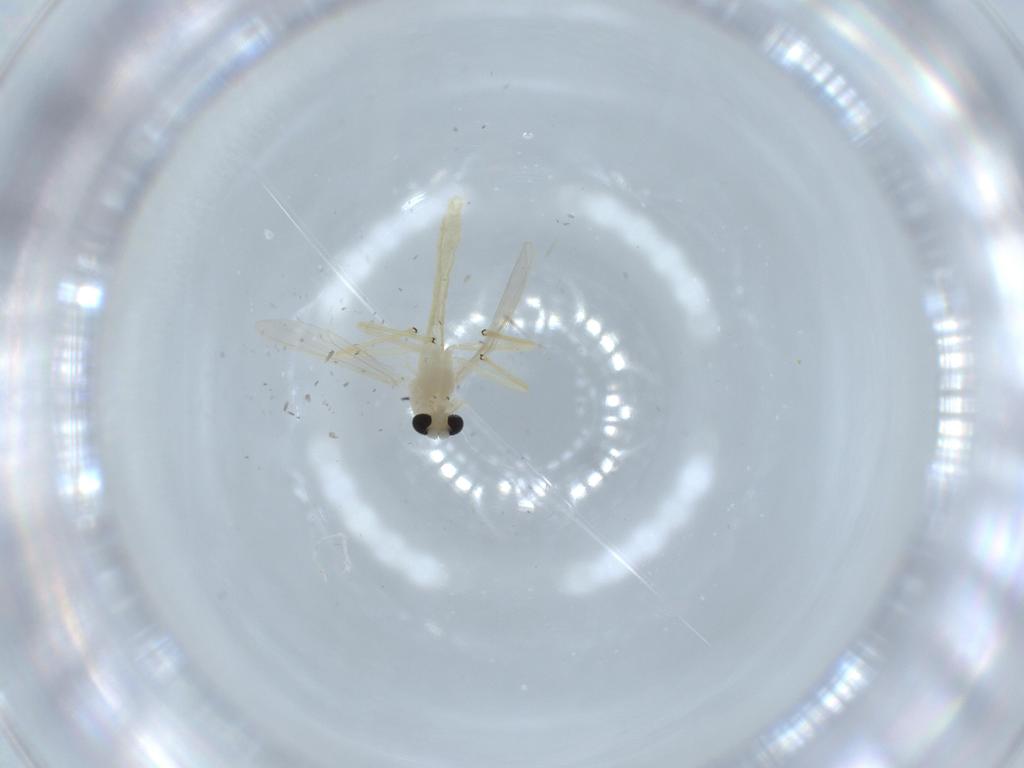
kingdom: Animalia
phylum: Arthropoda
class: Insecta
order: Diptera
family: Chironomidae
